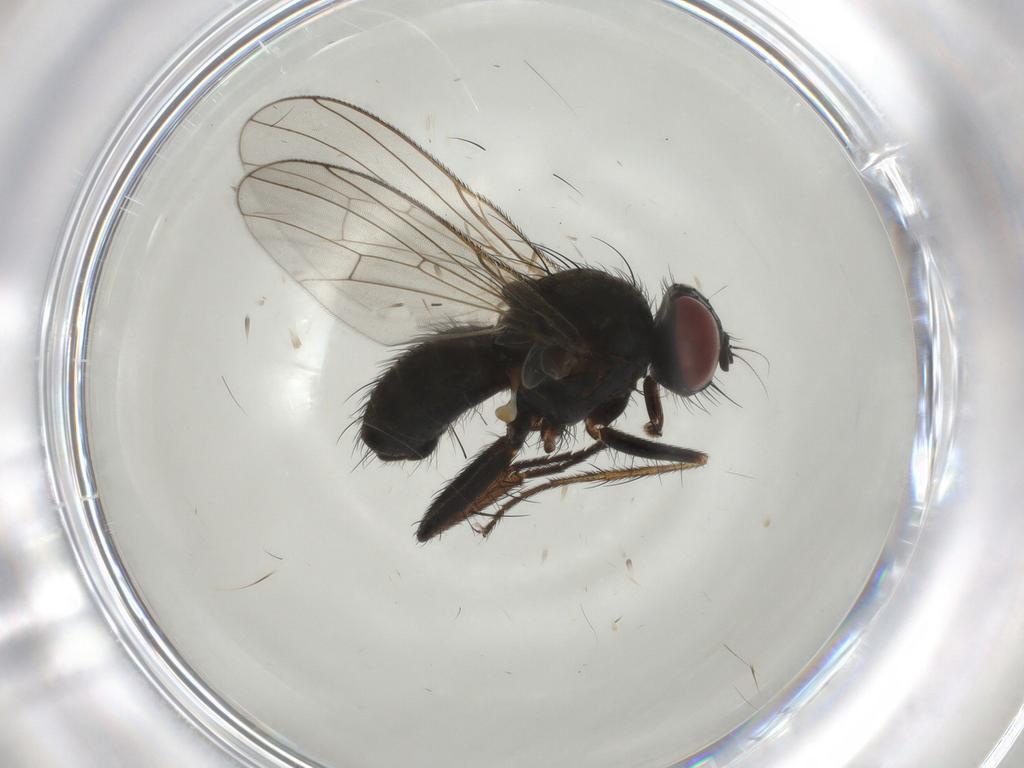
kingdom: Animalia
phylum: Arthropoda
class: Insecta
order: Diptera
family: Muscidae
